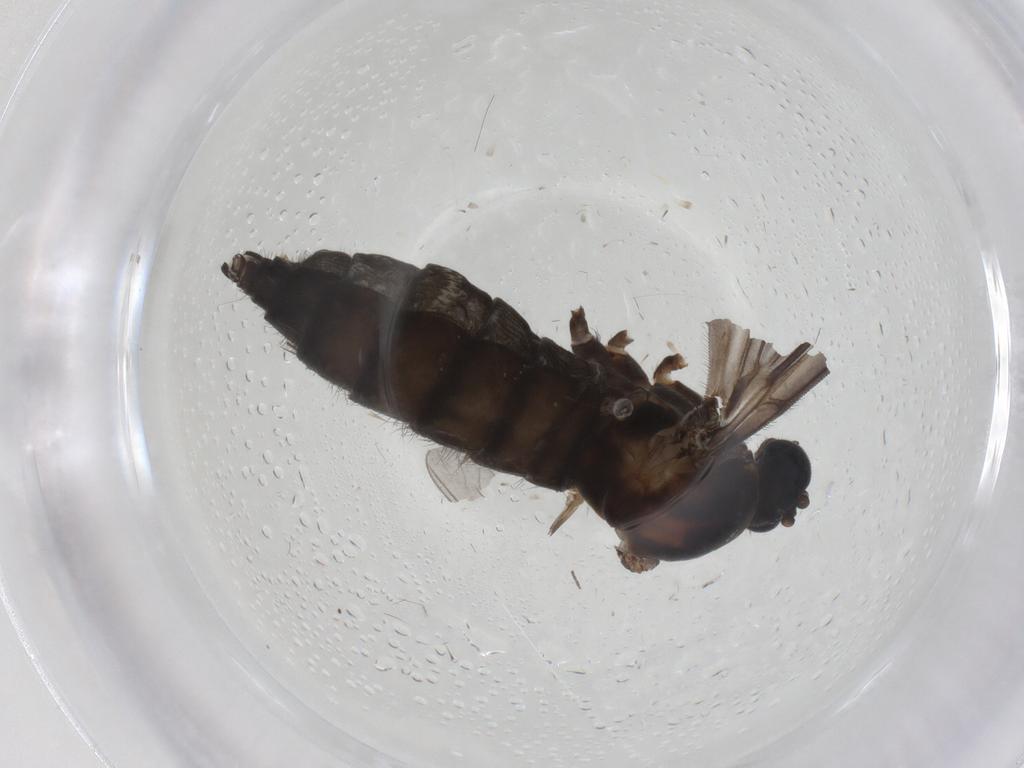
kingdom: Animalia
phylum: Arthropoda
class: Insecta
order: Diptera
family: Sciaridae
